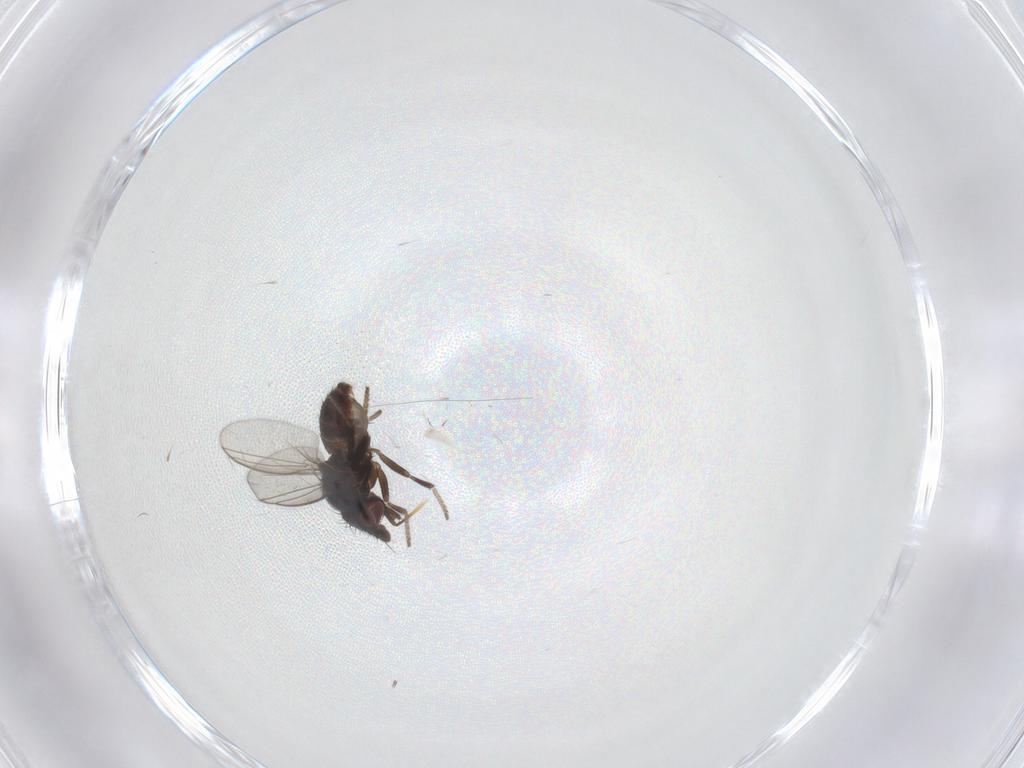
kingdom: Animalia
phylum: Arthropoda
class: Insecta
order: Diptera
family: Milichiidae
